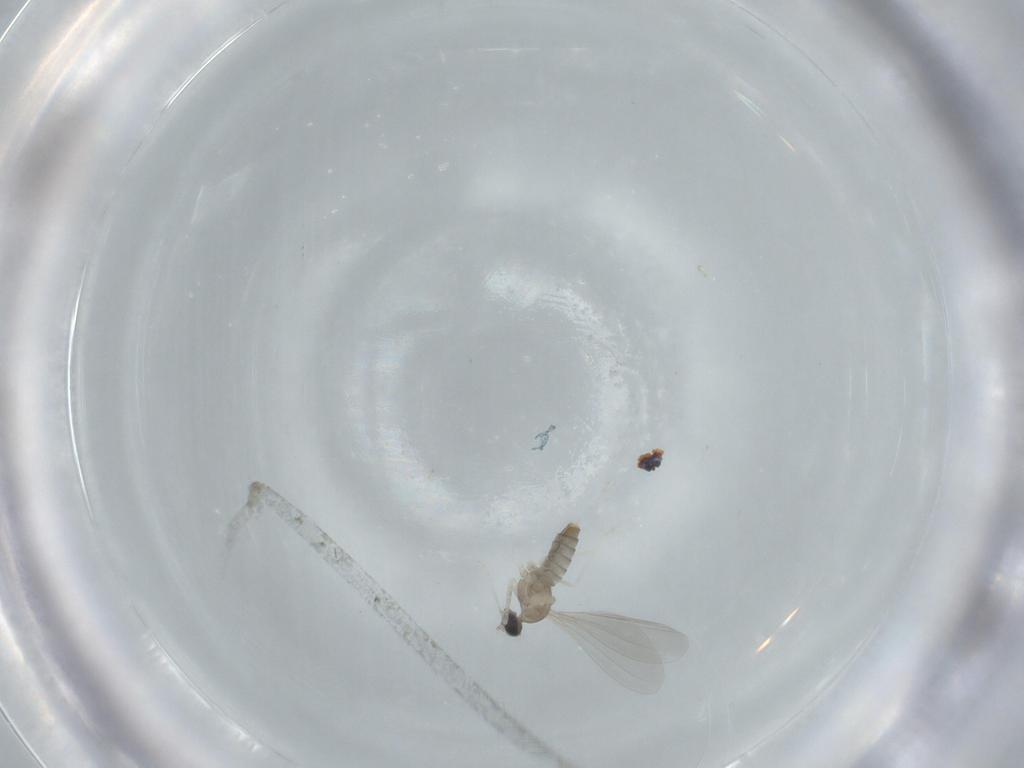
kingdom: Animalia
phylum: Arthropoda
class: Insecta
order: Diptera
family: Cecidomyiidae
